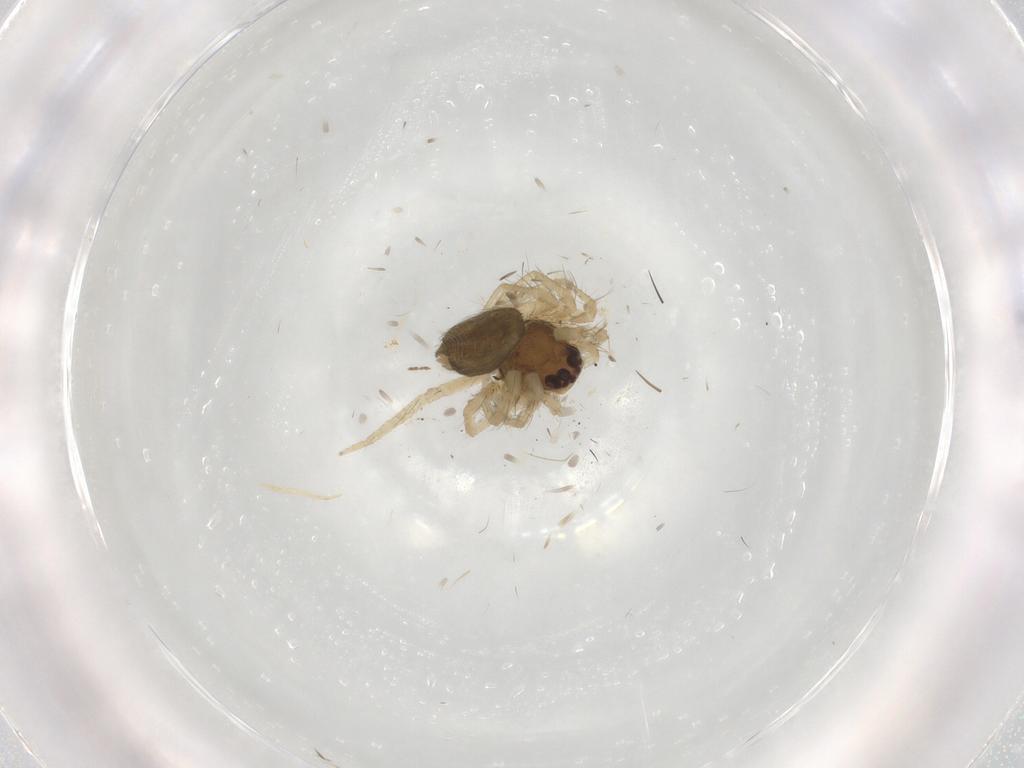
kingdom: Animalia
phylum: Arthropoda
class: Arachnida
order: Araneae
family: Pisauridae
